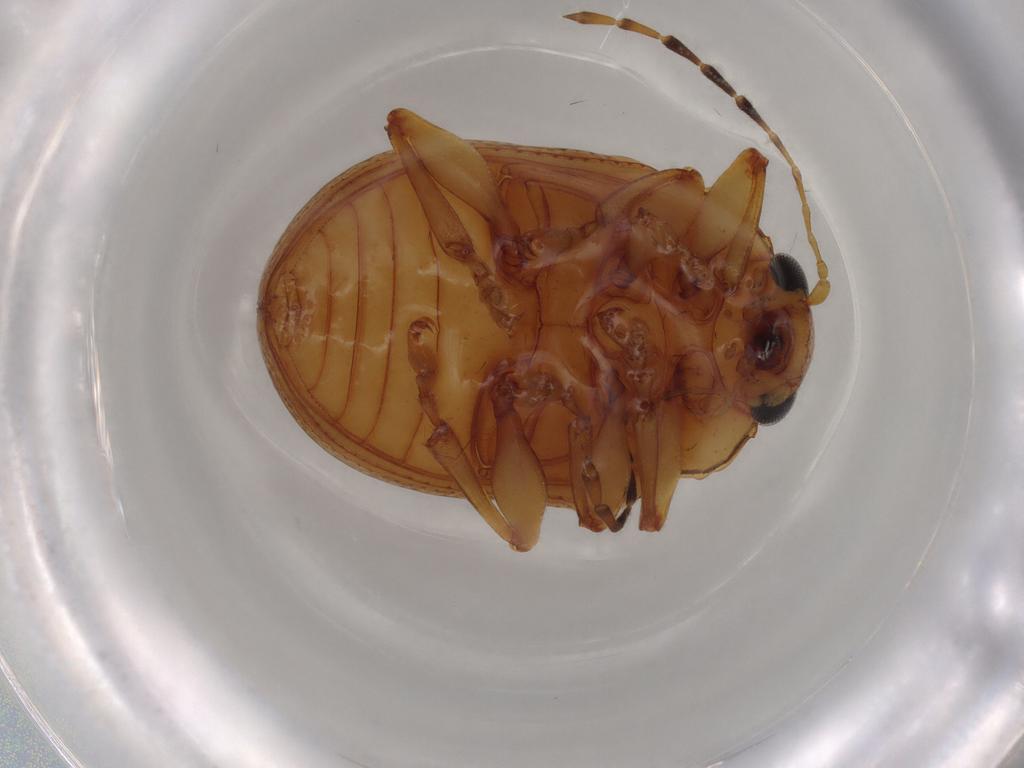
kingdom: Animalia
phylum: Arthropoda
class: Insecta
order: Coleoptera
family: Chrysomelidae
